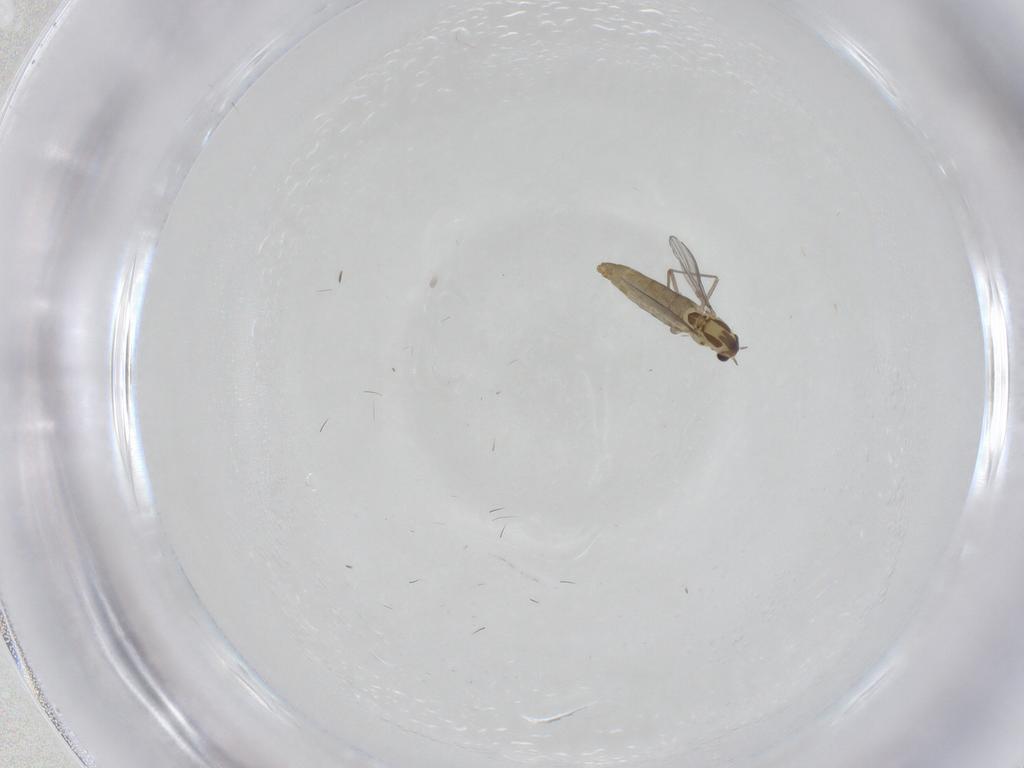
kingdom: Animalia
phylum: Arthropoda
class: Insecta
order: Diptera
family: Chironomidae
